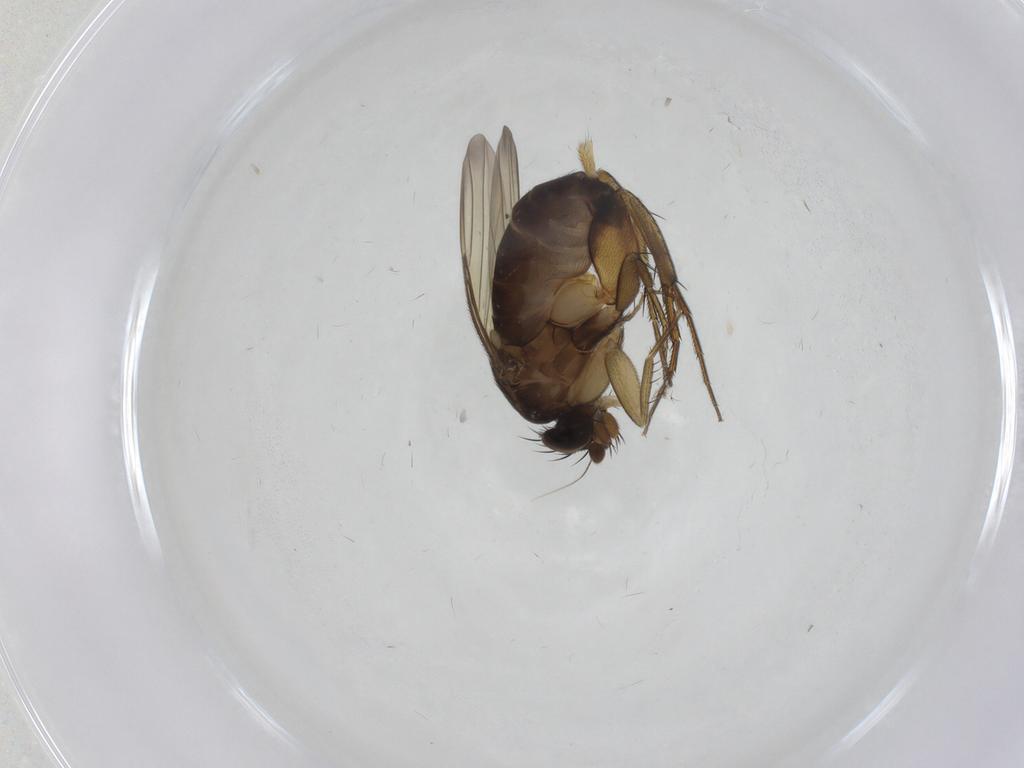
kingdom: Animalia
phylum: Arthropoda
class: Insecta
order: Diptera
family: Phoridae
